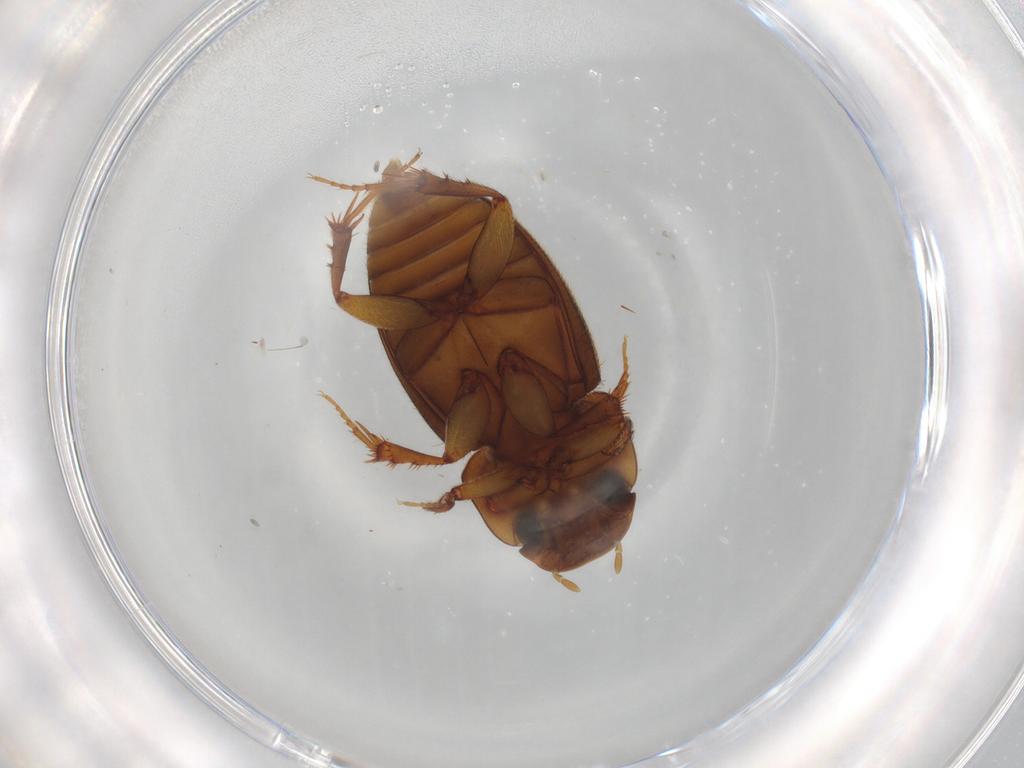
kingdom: Animalia
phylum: Arthropoda
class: Insecta
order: Coleoptera
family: Scarabaeidae
